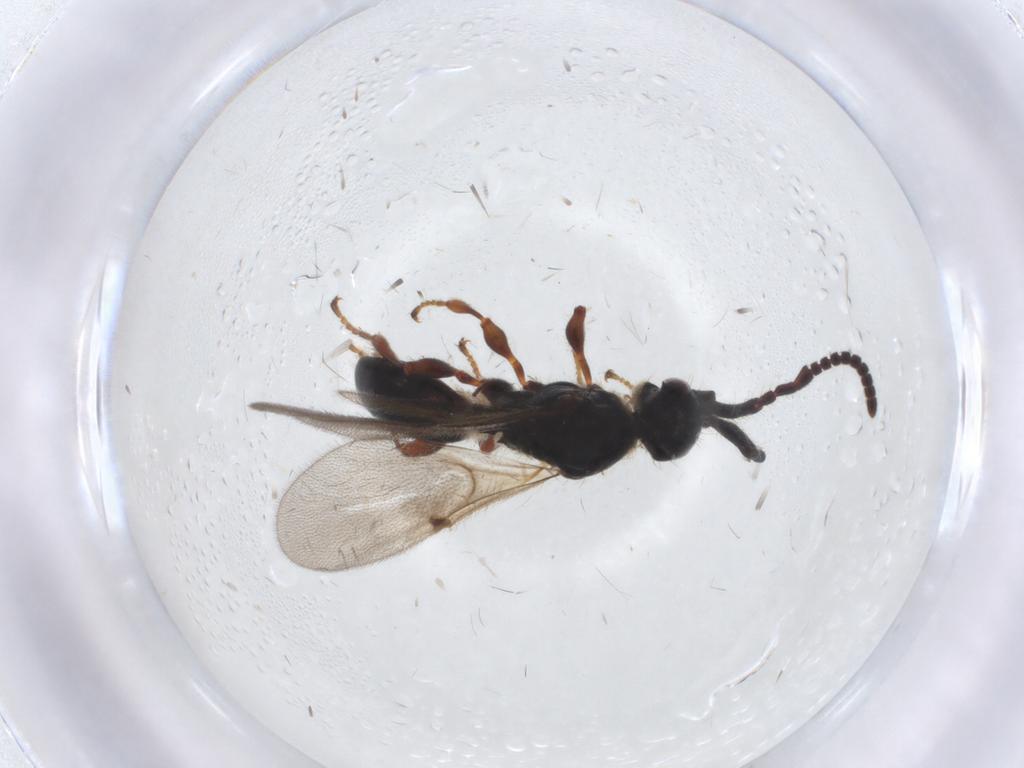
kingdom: Animalia
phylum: Arthropoda
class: Insecta
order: Hymenoptera
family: Diapriidae
